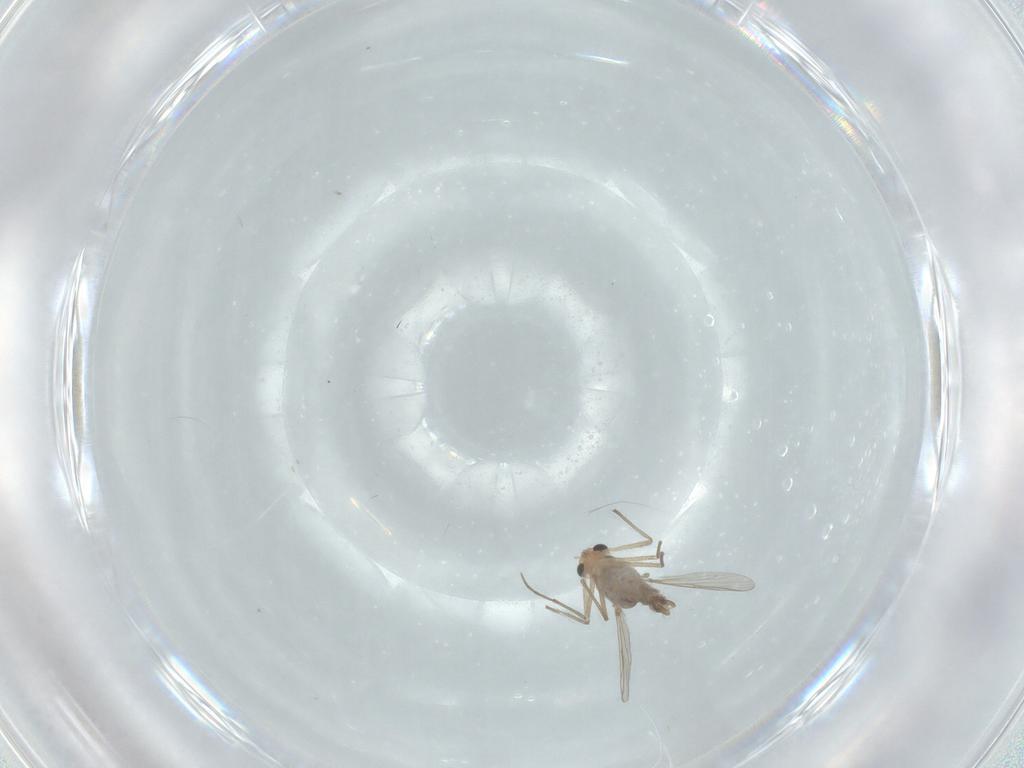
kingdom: Animalia
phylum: Arthropoda
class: Insecta
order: Diptera
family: Chironomidae
